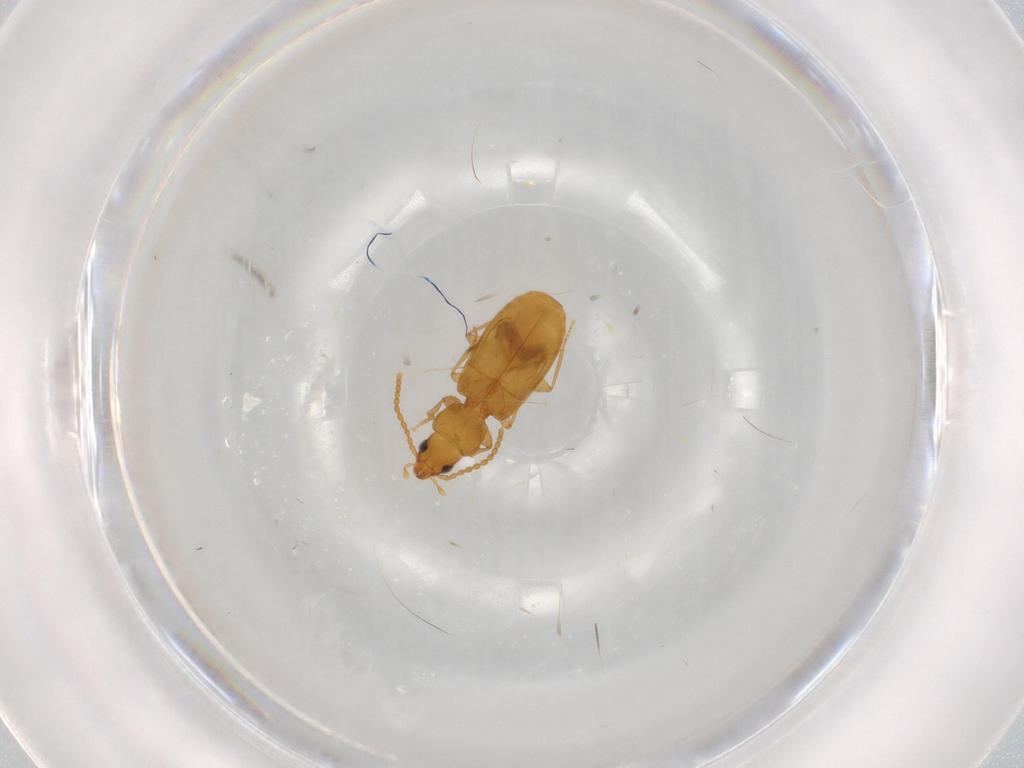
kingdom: Animalia
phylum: Arthropoda
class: Insecta
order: Coleoptera
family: Carabidae
